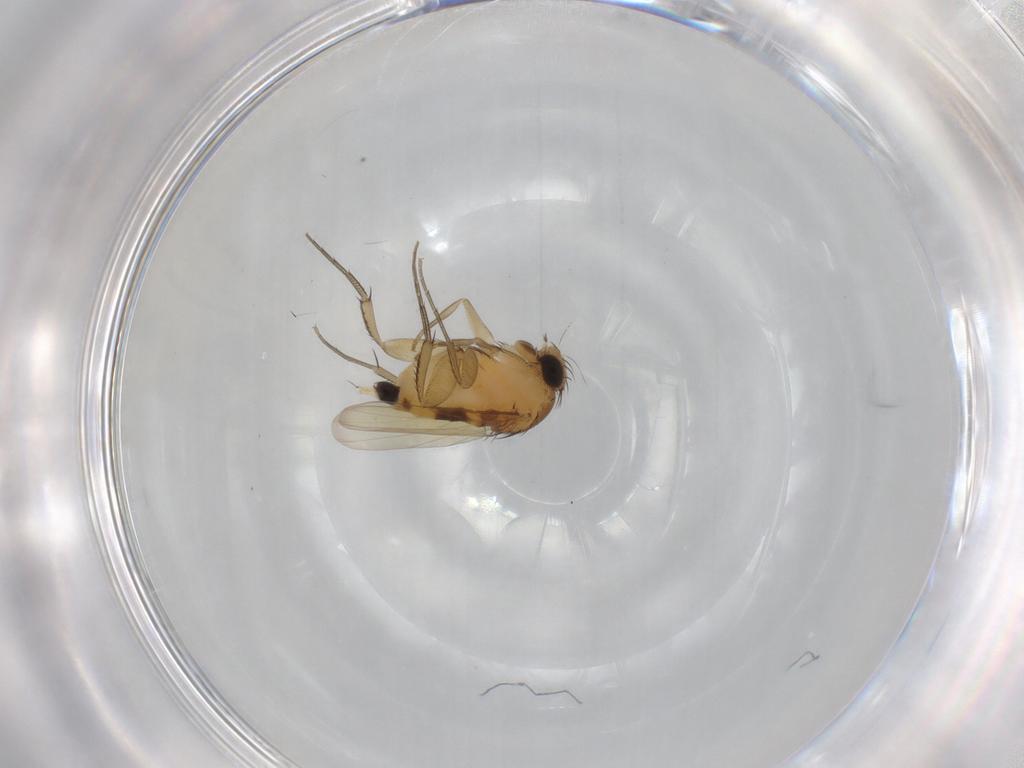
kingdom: Animalia
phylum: Arthropoda
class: Insecta
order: Diptera
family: Phoridae
